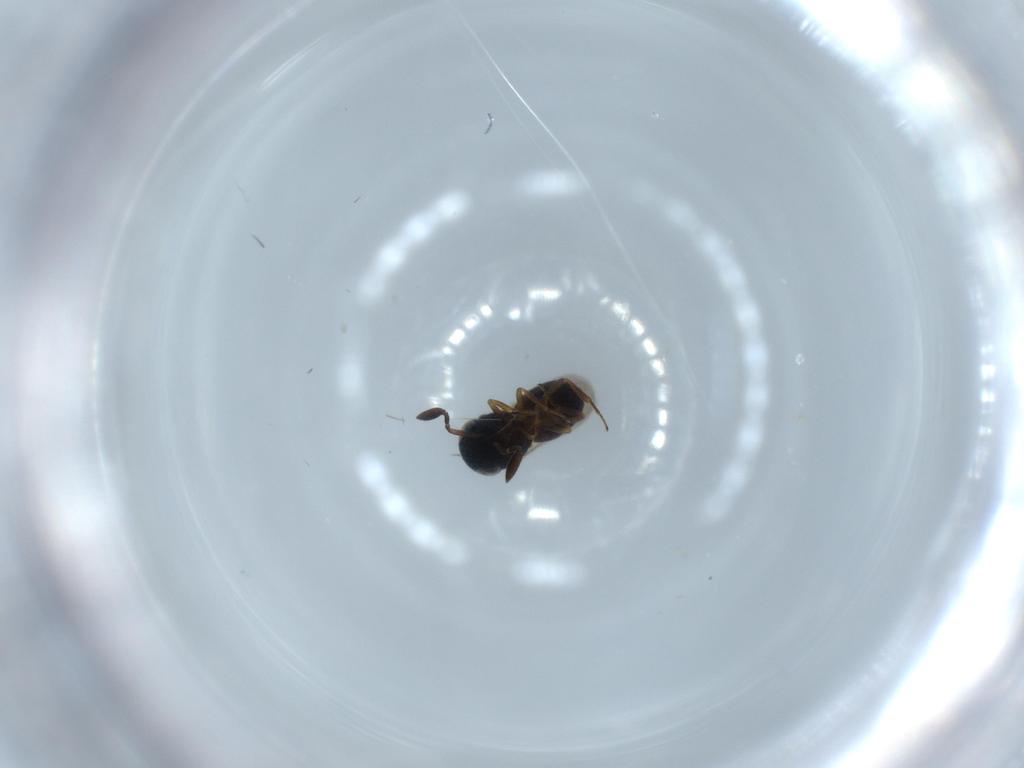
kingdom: Animalia
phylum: Arthropoda
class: Insecta
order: Hymenoptera
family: Scelionidae
